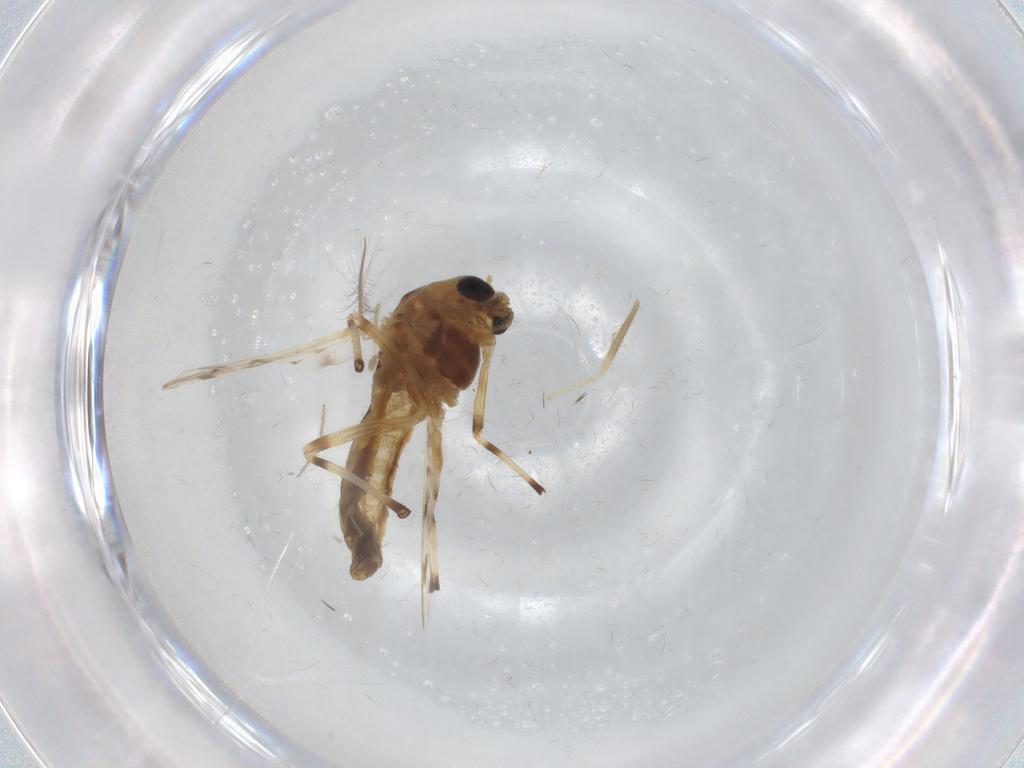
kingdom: Animalia
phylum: Arthropoda
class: Insecta
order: Diptera
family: Chironomidae
